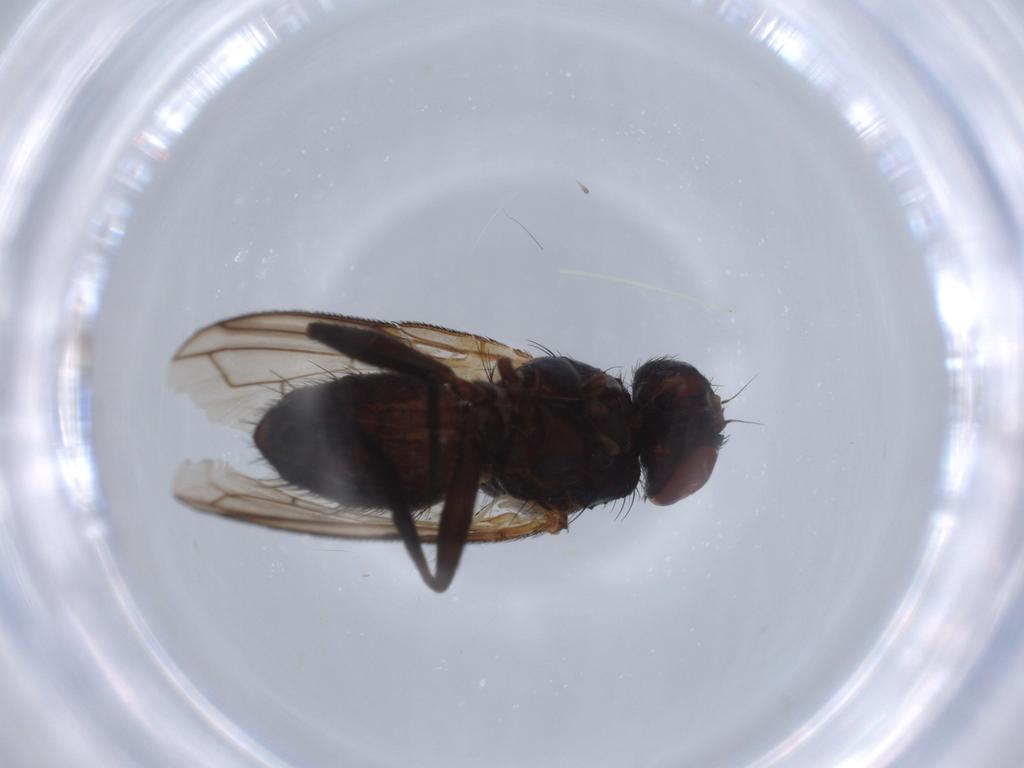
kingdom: Animalia
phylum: Arthropoda
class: Insecta
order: Diptera
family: Tachinidae
